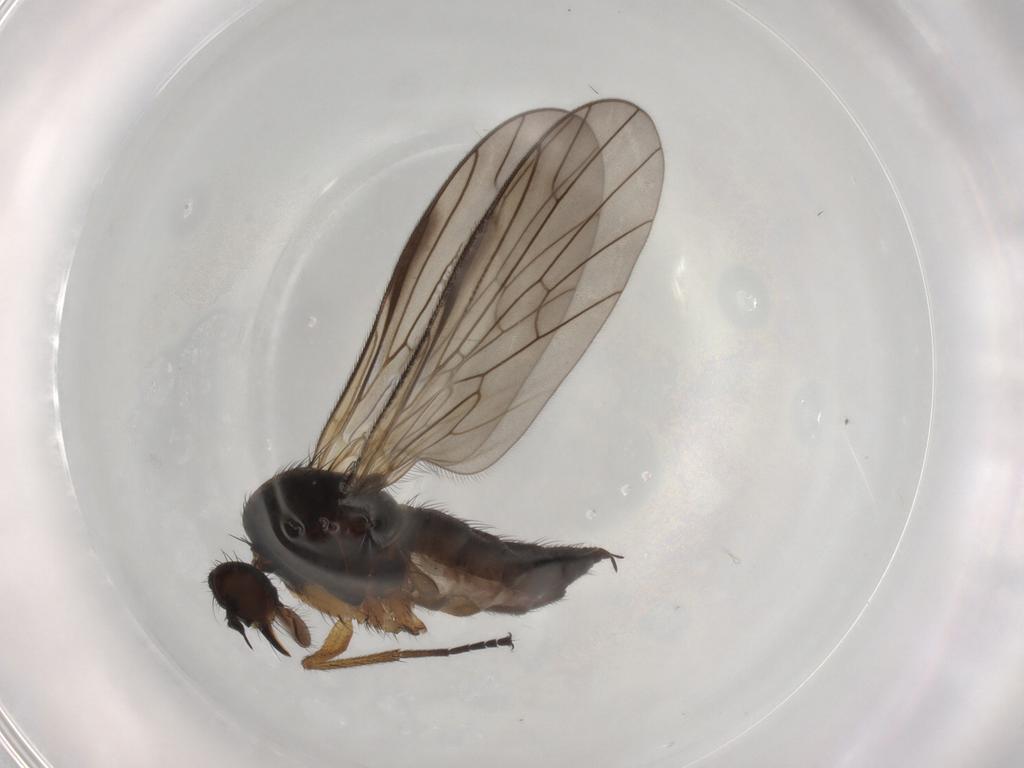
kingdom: Animalia
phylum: Arthropoda
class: Insecta
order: Diptera
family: Empididae
